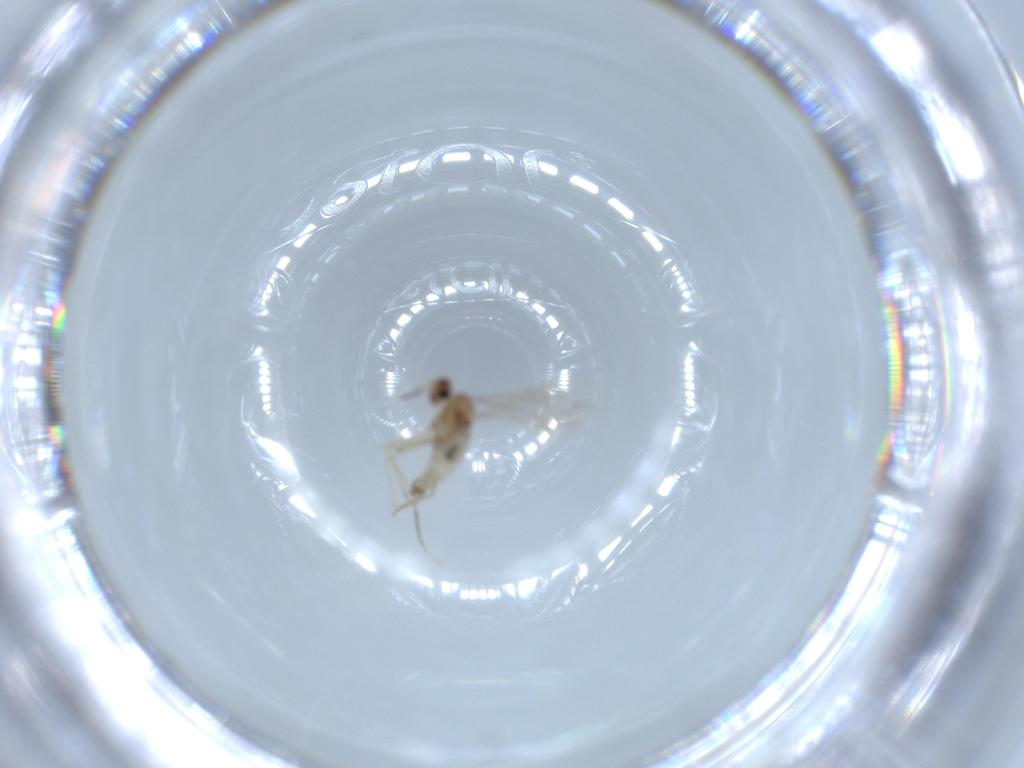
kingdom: Animalia
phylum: Arthropoda
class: Insecta
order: Diptera
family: Cecidomyiidae
